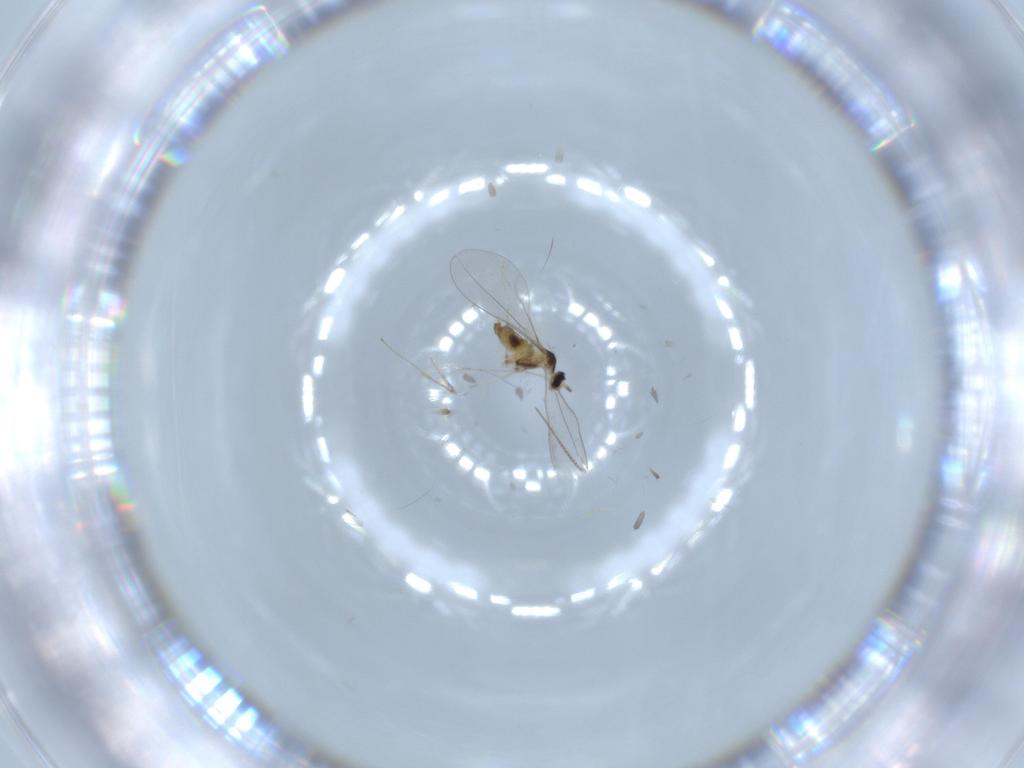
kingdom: Animalia
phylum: Arthropoda
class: Insecta
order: Diptera
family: Cecidomyiidae
